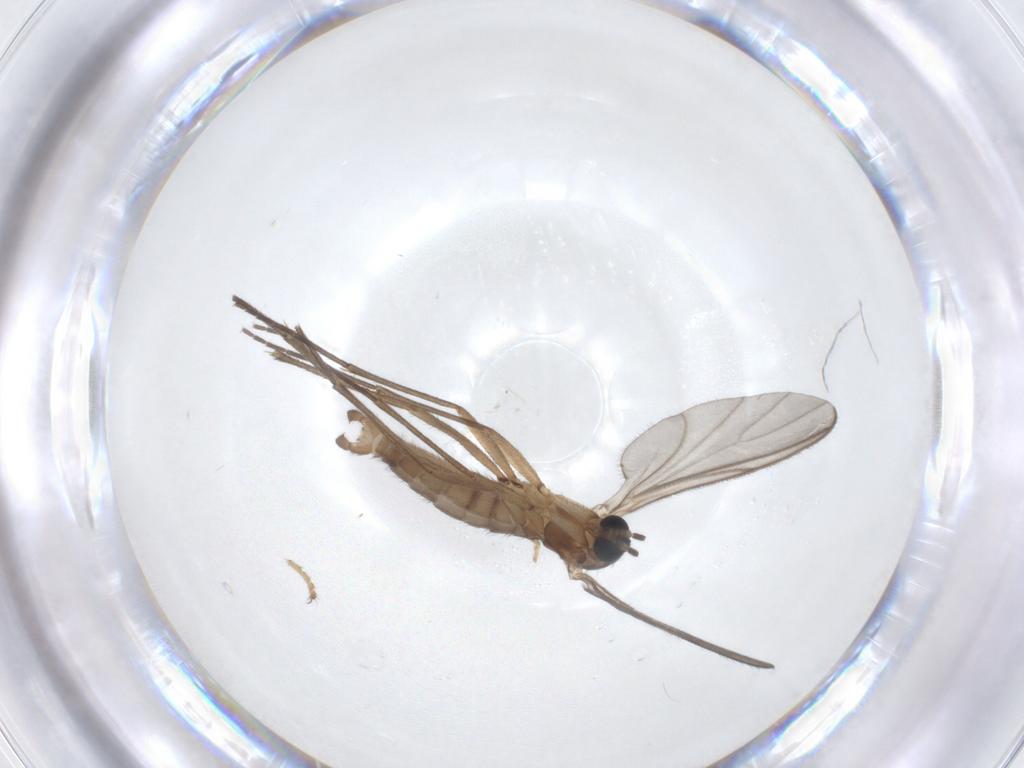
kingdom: Animalia
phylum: Arthropoda
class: Insecta
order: Diptera
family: Sciaridae
